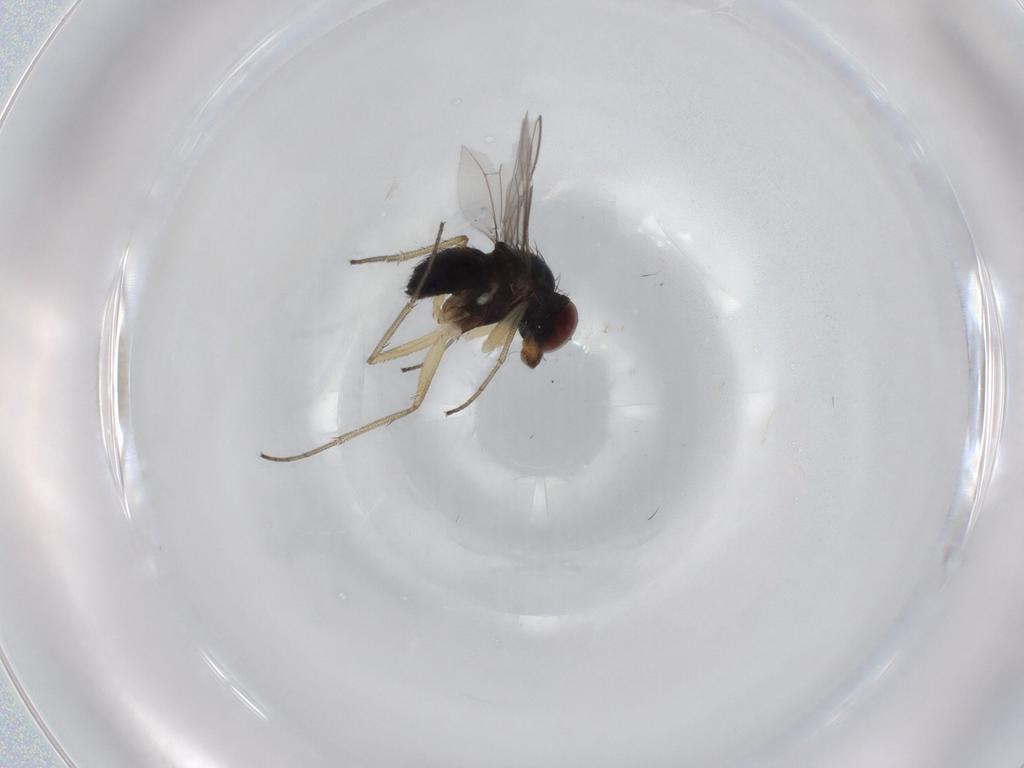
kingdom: Animalia
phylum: Arthropoda
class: Insecta
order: Diptera
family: Dolichopodidae
